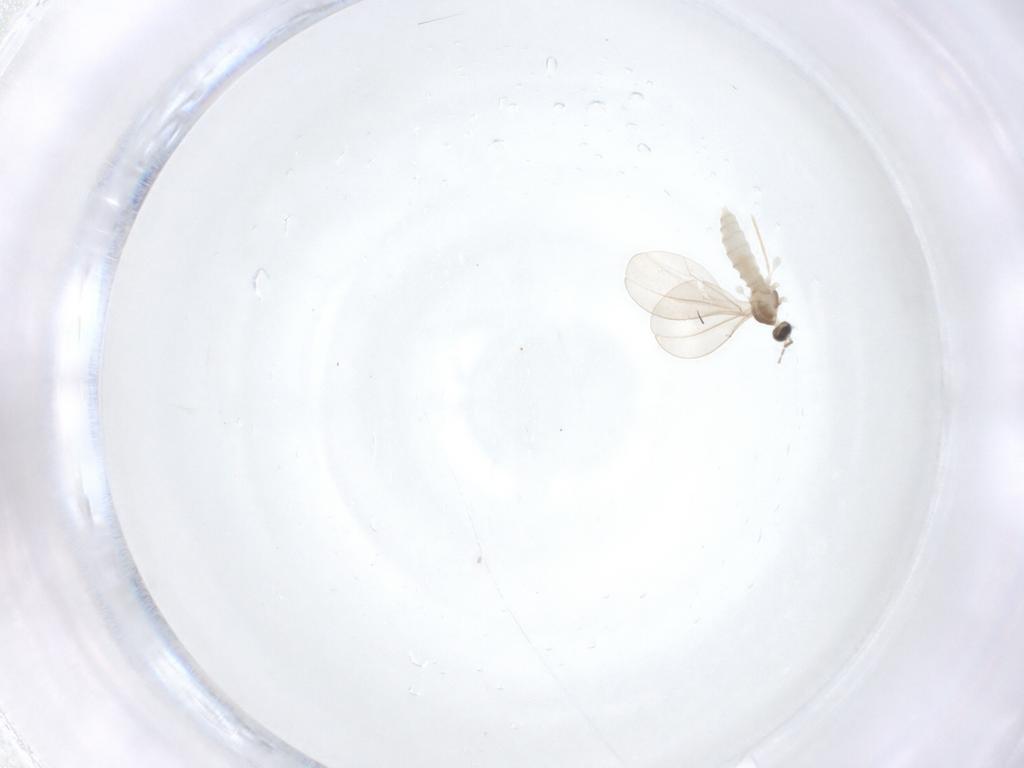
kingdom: Animalia
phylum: Arthropoda
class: Insecta
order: Diptera
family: Cecidomyiidae
